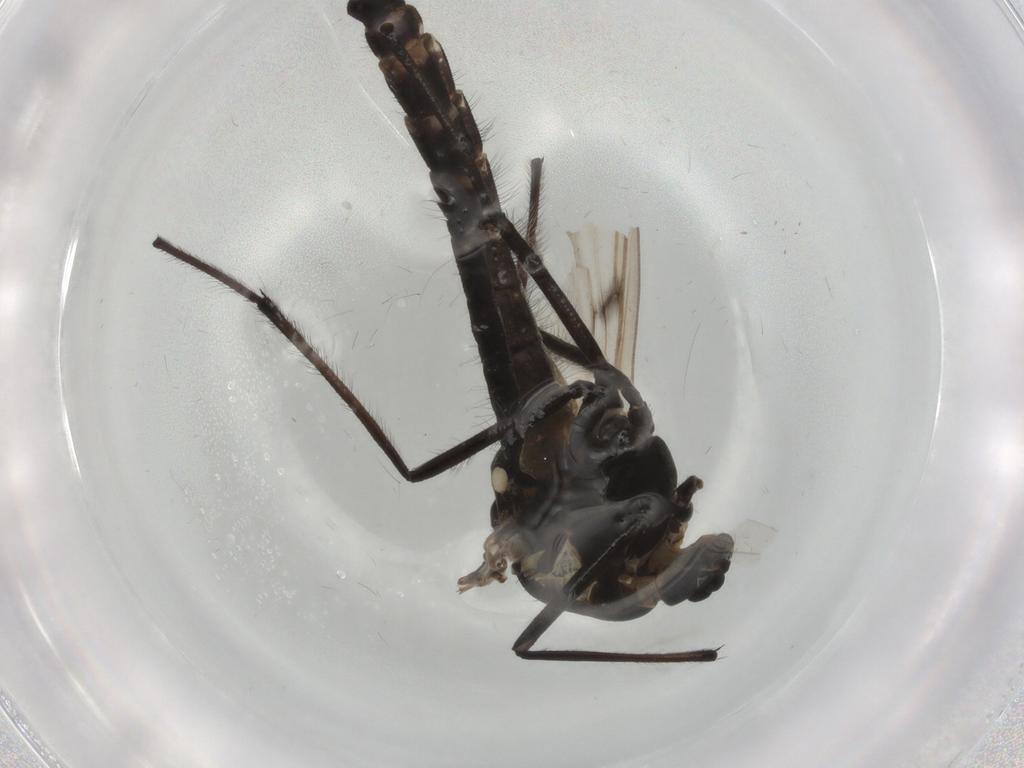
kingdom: Animalia
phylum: Arthropoda
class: Insecta
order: Diptera
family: Chironomidae
